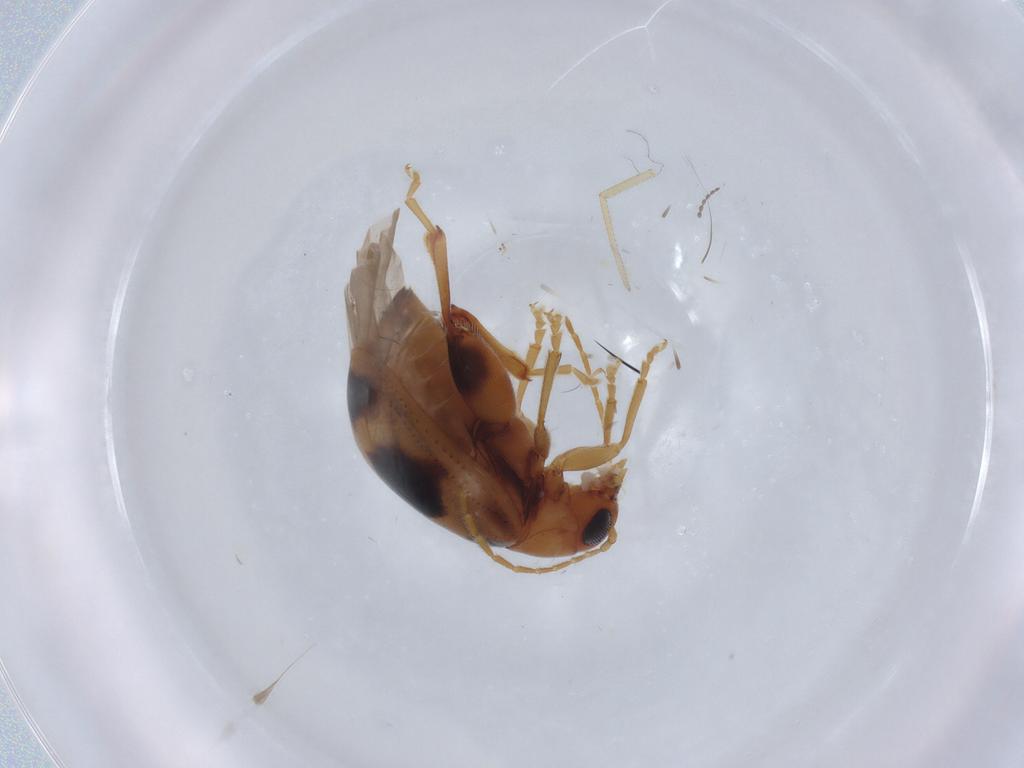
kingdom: Animalia
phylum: Arthropoda
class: Insecta
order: Coleoptera
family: Chrysomelidae
